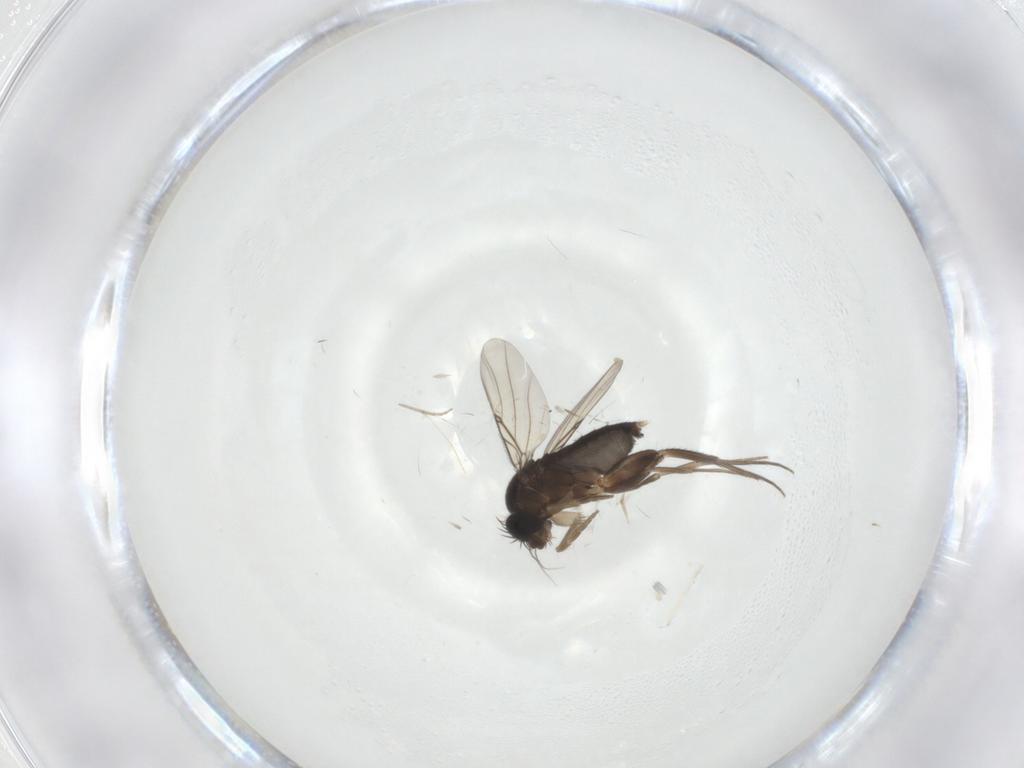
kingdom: Animalia
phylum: Arthropoda
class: Insecta
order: Diptera
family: Phoridae
